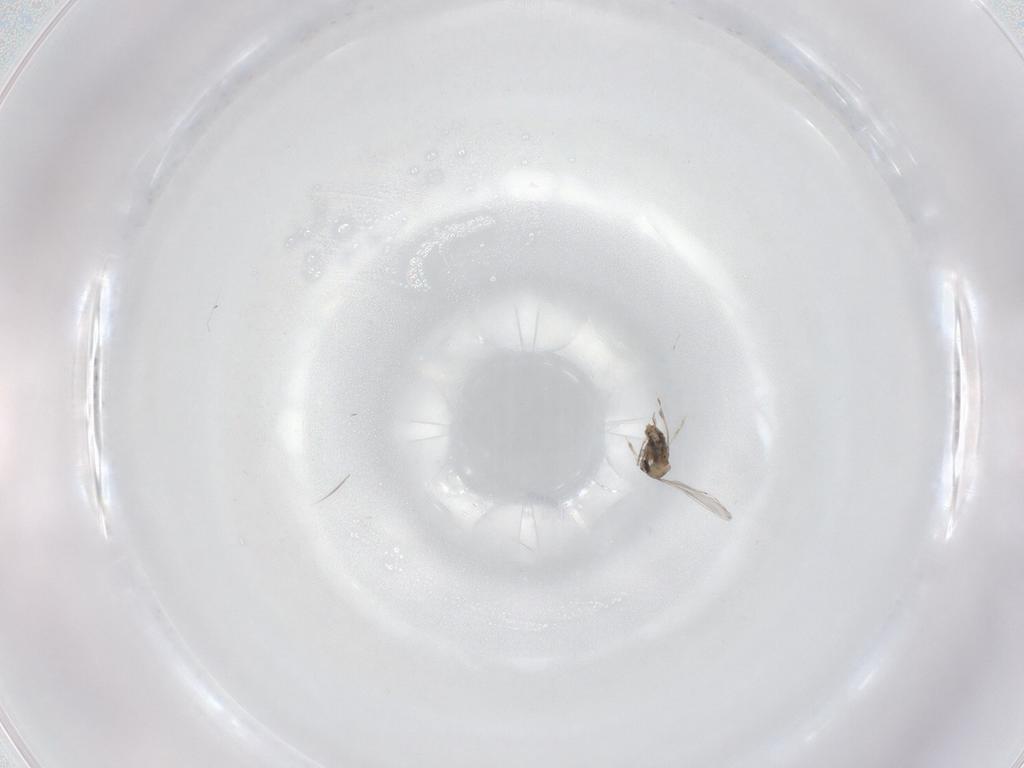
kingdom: Animalia
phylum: Arthropoda
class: Insecta
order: Diptera
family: Cecidomyiidae
